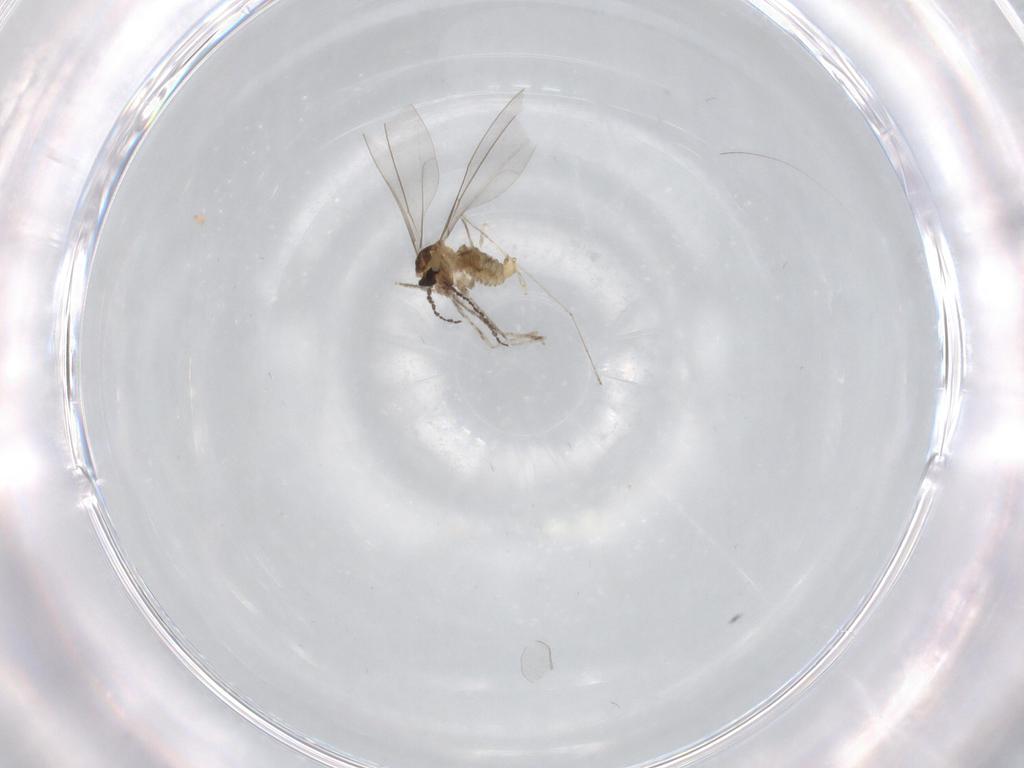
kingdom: Animalia
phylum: Arthropoda
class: Insecta
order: Diptera
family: Cecidomyiidae
